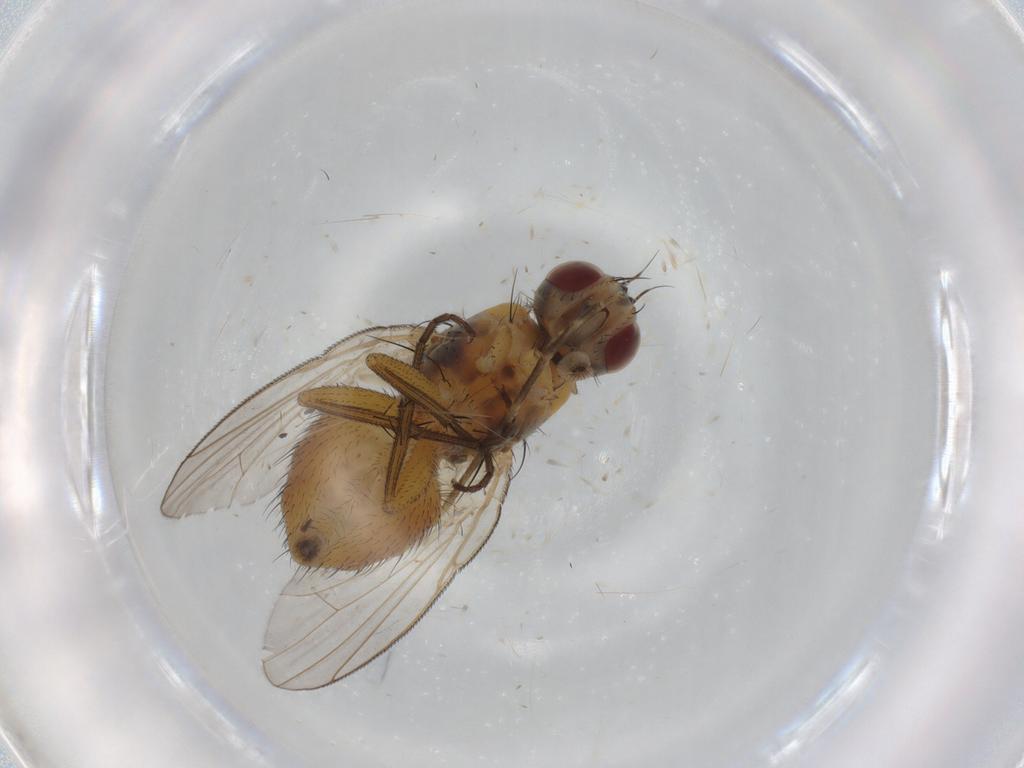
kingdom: Animalia
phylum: Arthropoda
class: Insecta
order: Diptera
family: Muscidae
